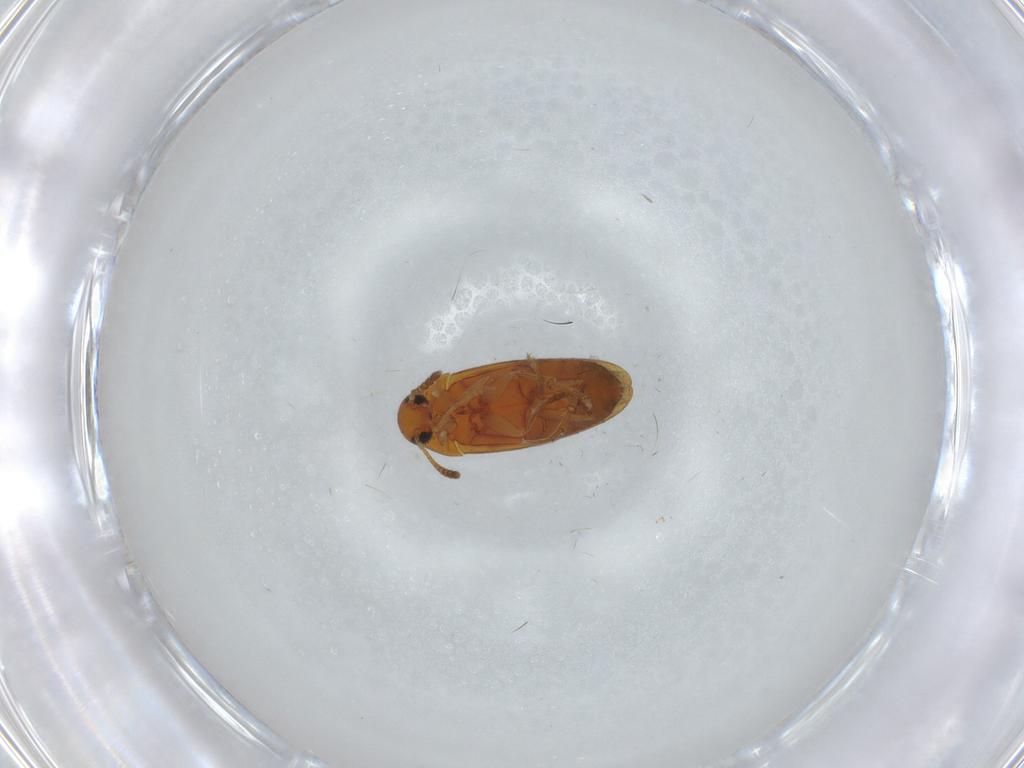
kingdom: Animalia
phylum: Arthropoda
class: Insecta
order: Coleoptera
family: Scraptiidae
